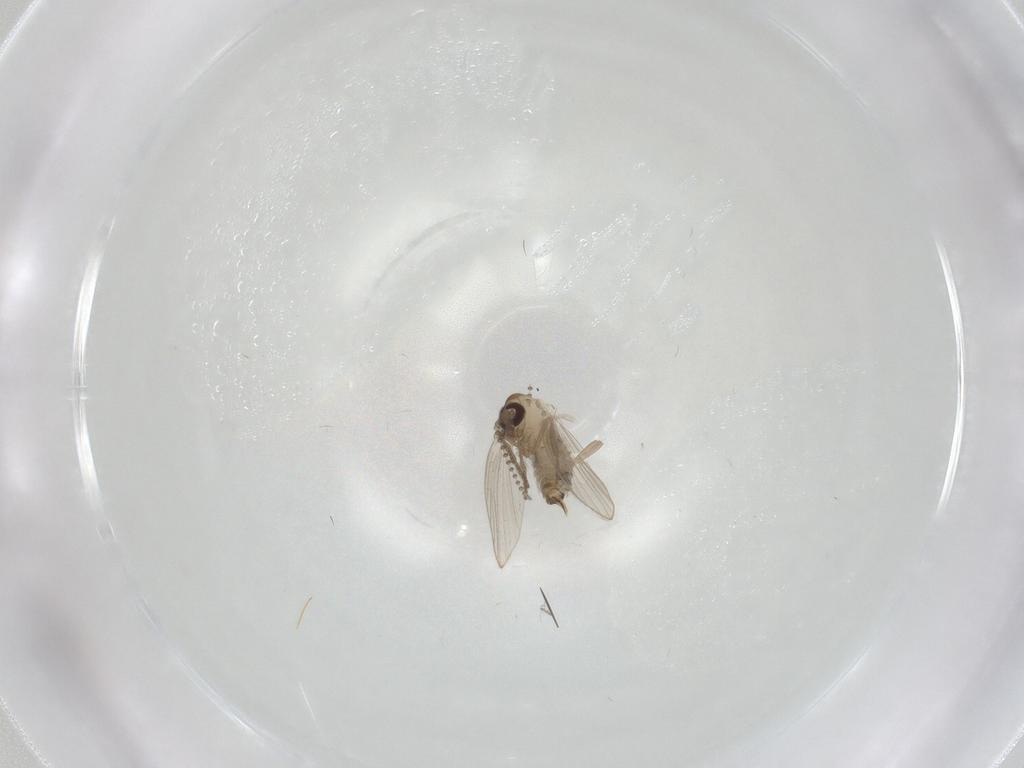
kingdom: Animalia
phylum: Arthropoda
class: Insecta
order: Diptera
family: Psychodidae
